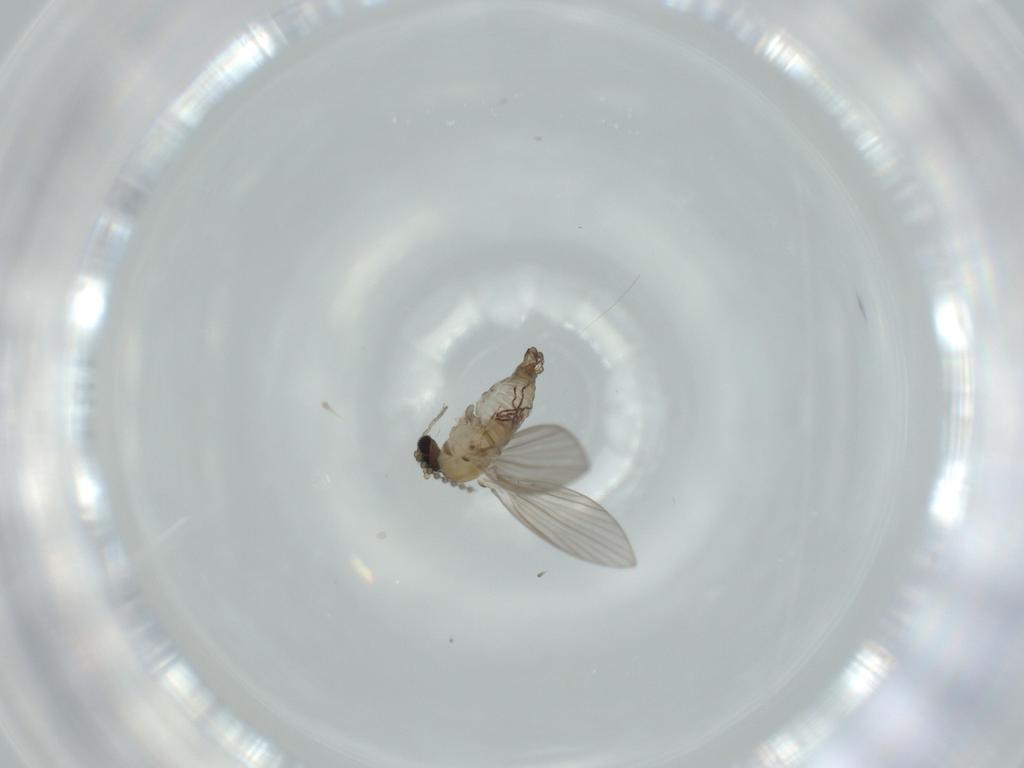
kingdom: Animalia
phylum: Arthropoda
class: Insecta
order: Diptera
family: Psychodidae
